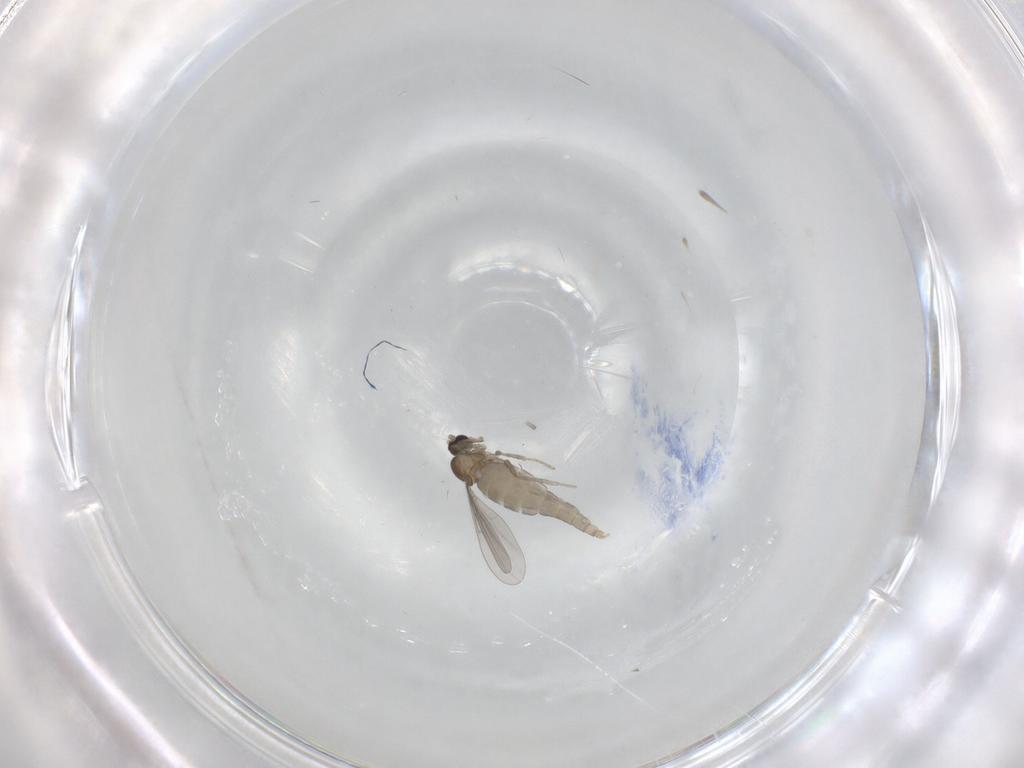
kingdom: Animalia
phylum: Arthropoda
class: Insecta
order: Diptera
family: Cecidomyiidae
